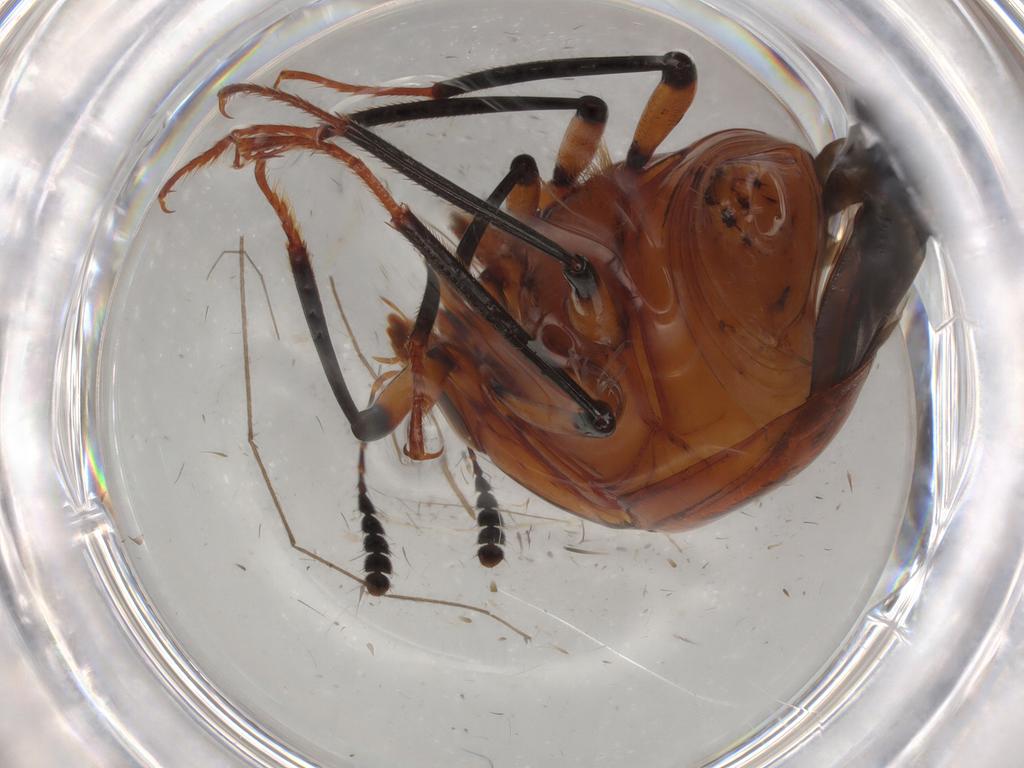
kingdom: Animalia
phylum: Arthropoda
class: Insecta
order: Coleoptera
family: Staphylinidae
